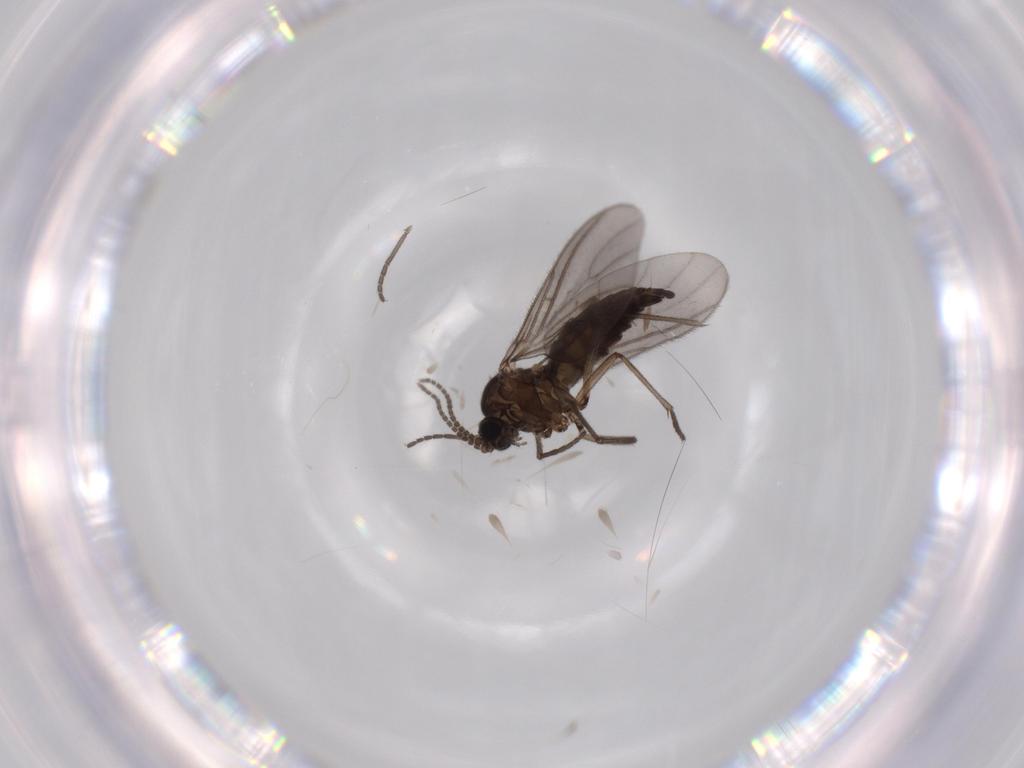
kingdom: Animalia
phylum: Arthropoda
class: Insecta
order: Diptera
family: Sciaridae
